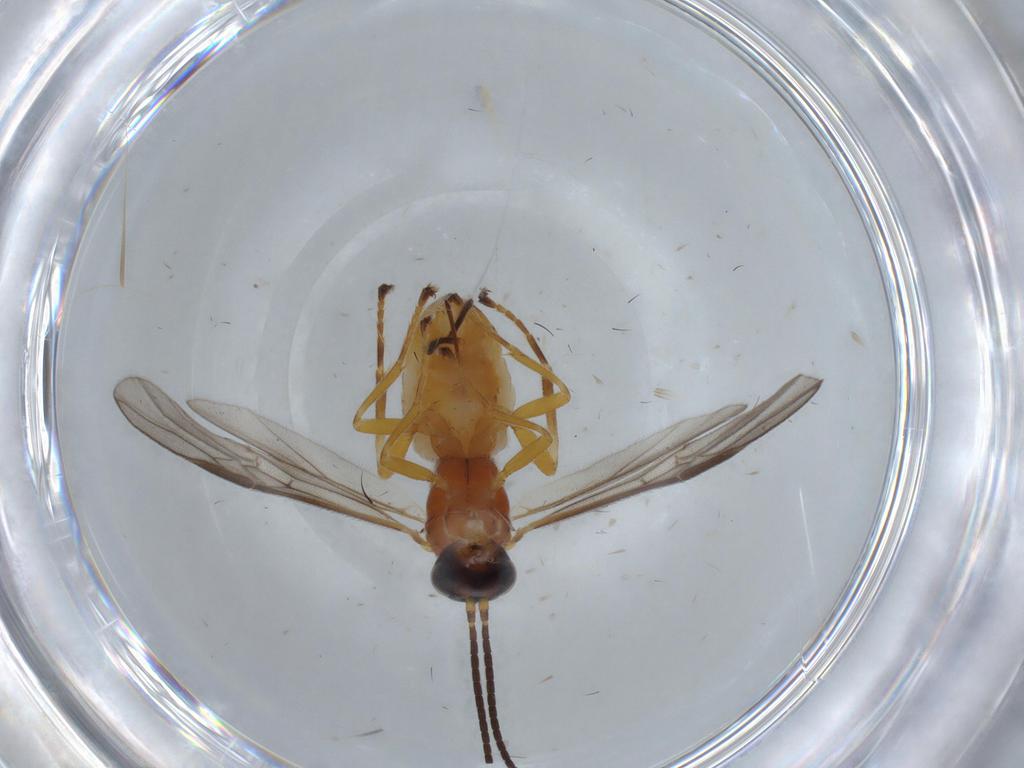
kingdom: Animalia
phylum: Arthropoda
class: Insecta
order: Hymenoptera
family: Braconidae
